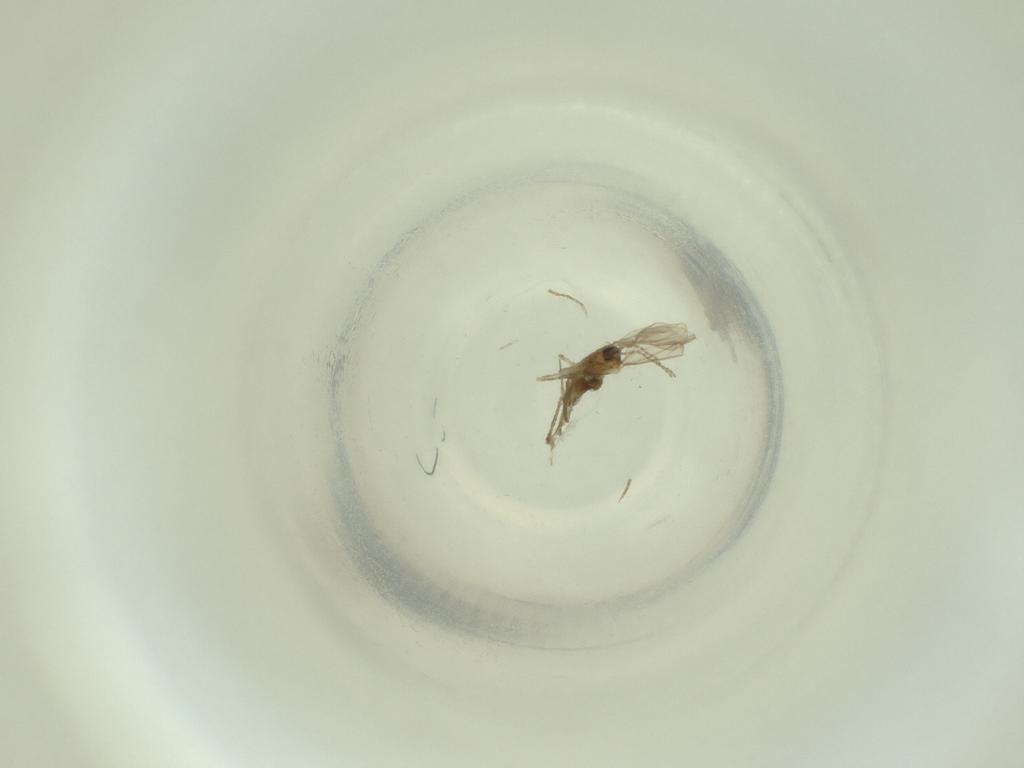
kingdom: Animalia
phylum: Arthropoda
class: Insecta
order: Diptera
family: Cecidomyiidae
